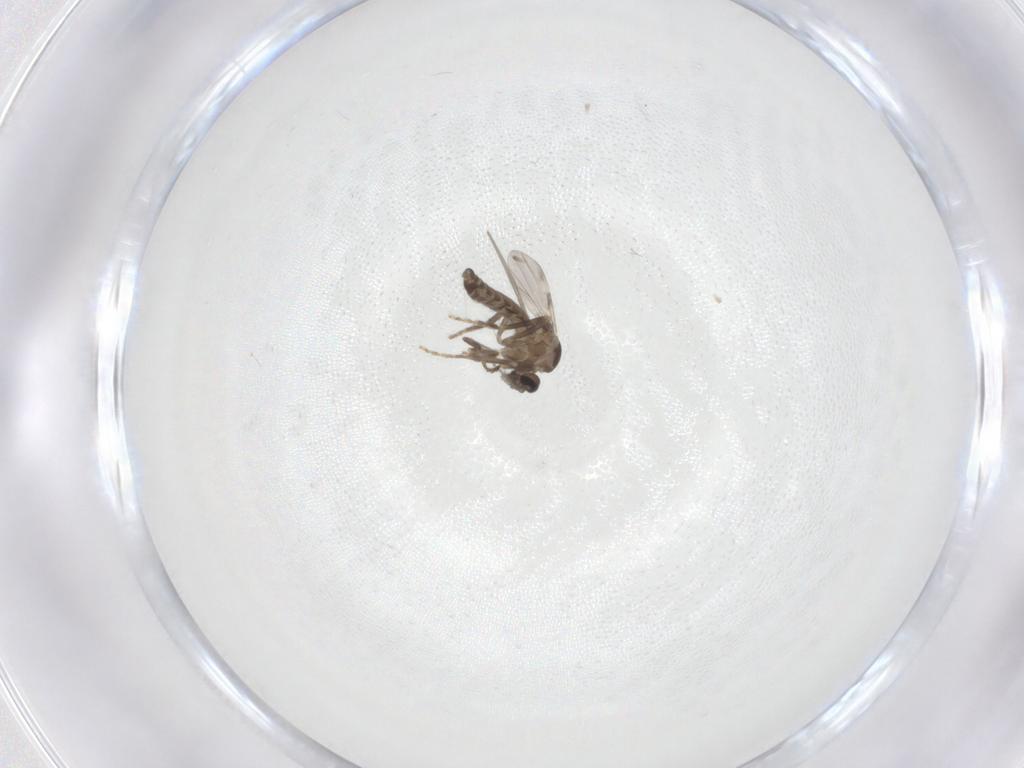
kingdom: Animalia
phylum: Arthropoda
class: Insecta
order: Diptera
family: Ceratopogonidae
